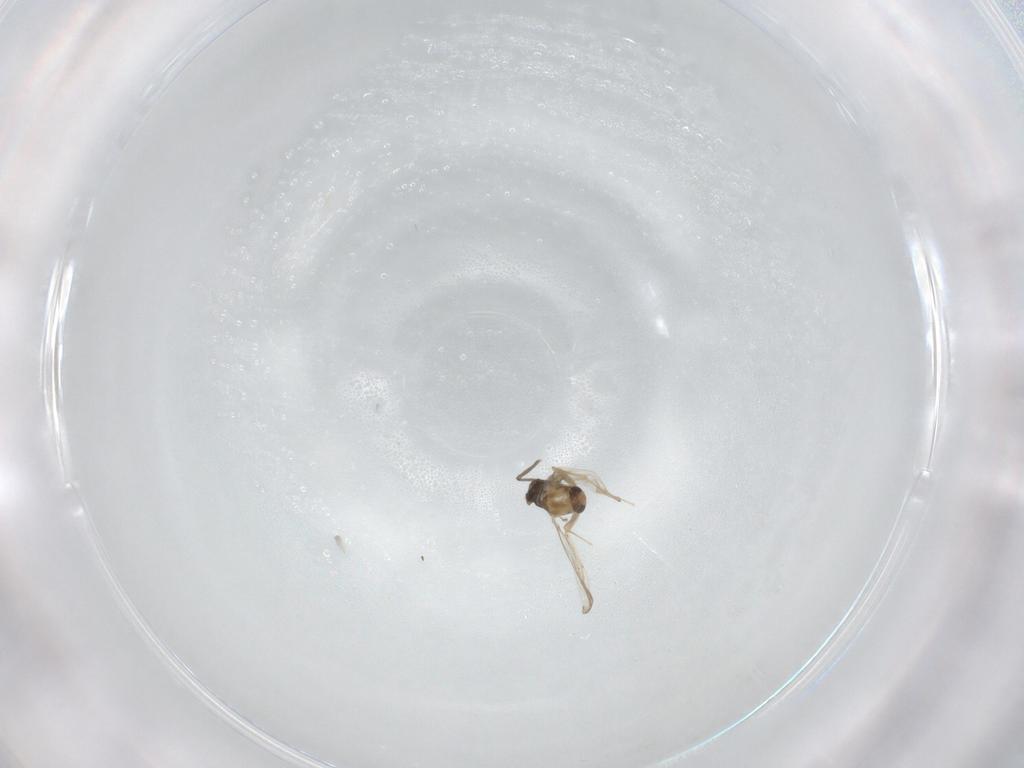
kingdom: Animalia
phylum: Arthropoda
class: Insecta
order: Diptera
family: Chironomidae
